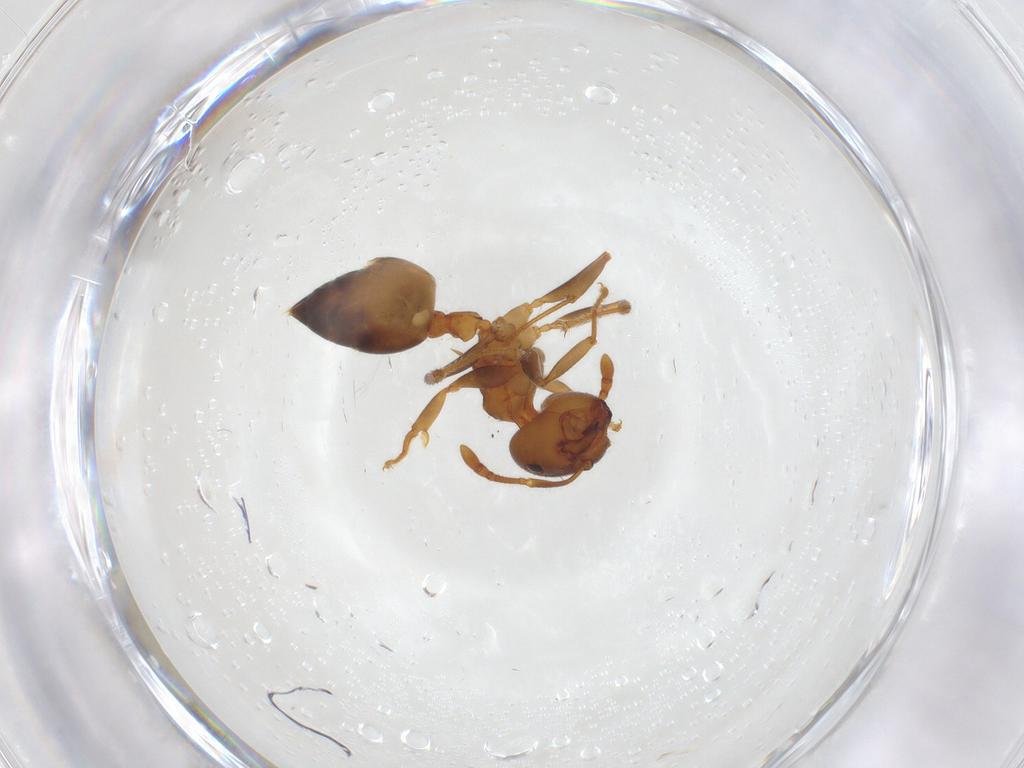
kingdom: Animalia
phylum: Arthropoda
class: Insecta
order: Hymenoptera
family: Formicidae
